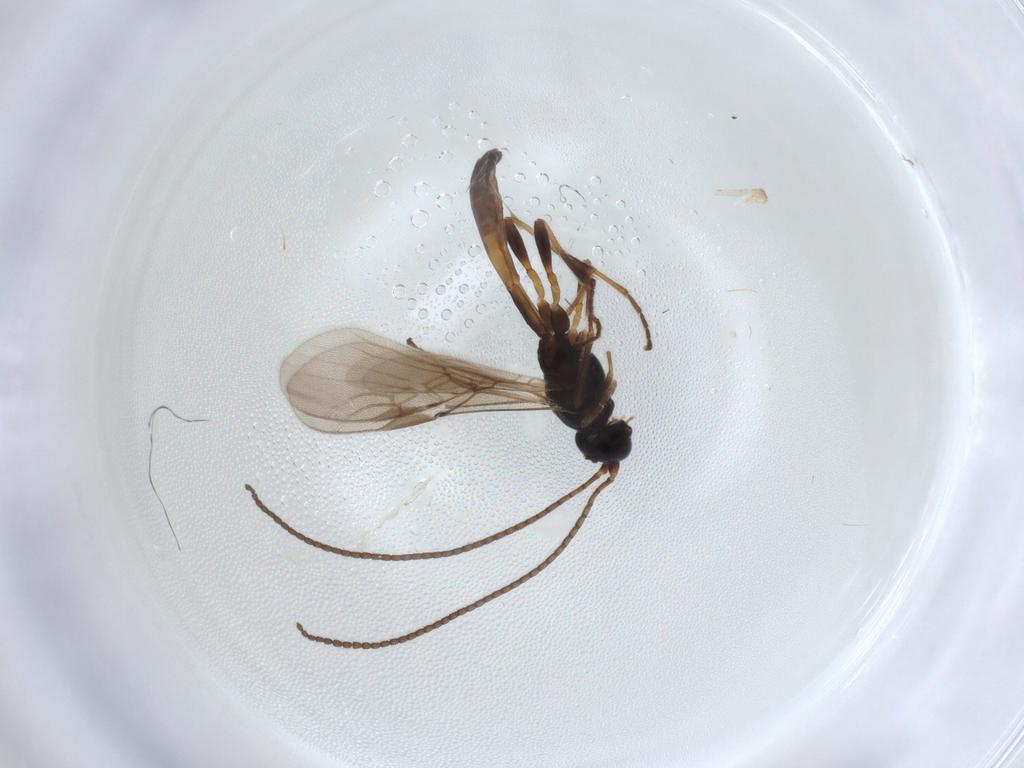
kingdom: Animalia
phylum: Arthropoda
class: Insecta
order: Hymenoptera
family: Braconidae
